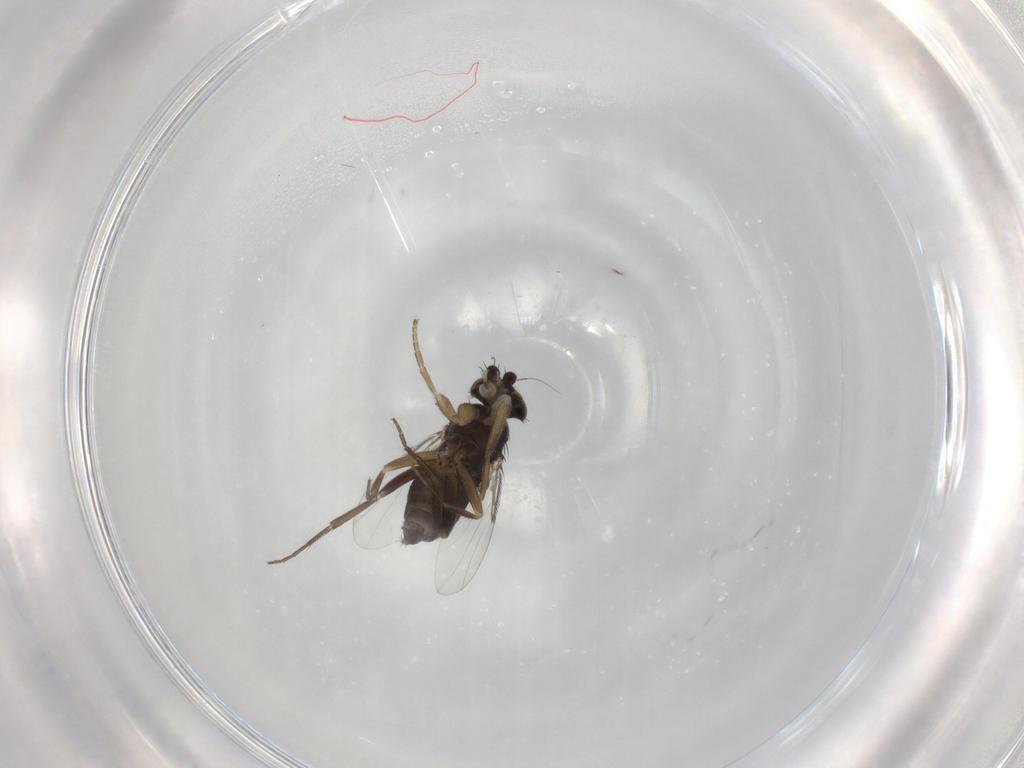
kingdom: Animalia
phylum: Arthropoda
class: Insecta
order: Diptera
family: Phoridae
